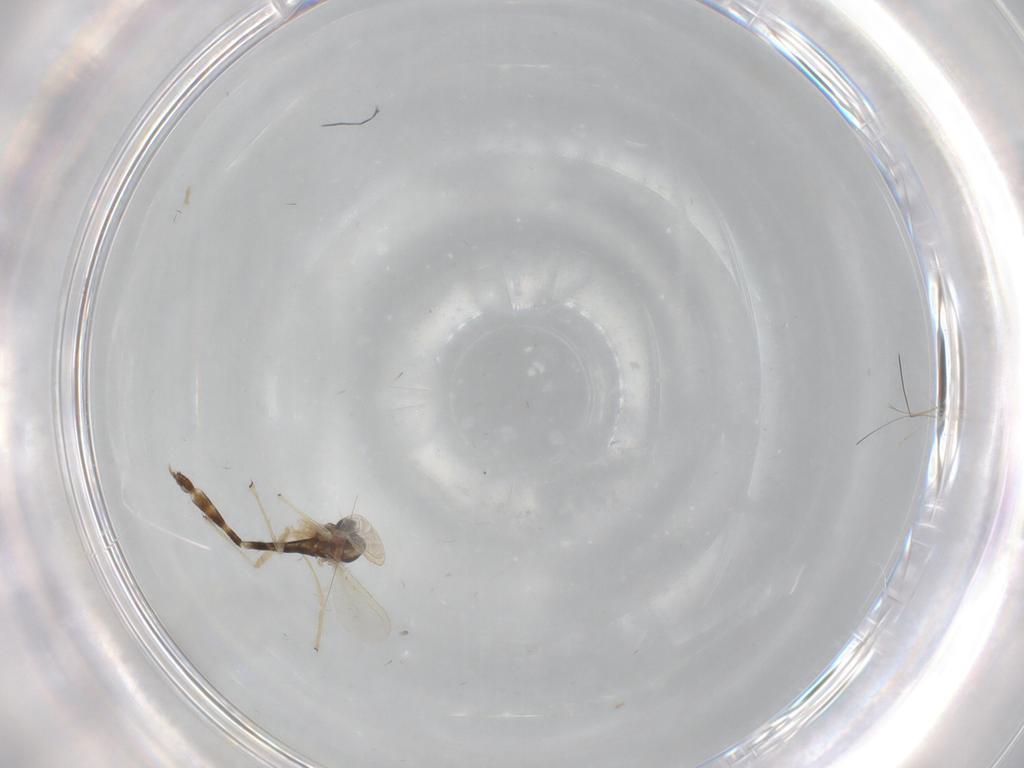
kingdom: Animalia
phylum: Arthropoda
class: Insecta
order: Diptera
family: Chironomidae
